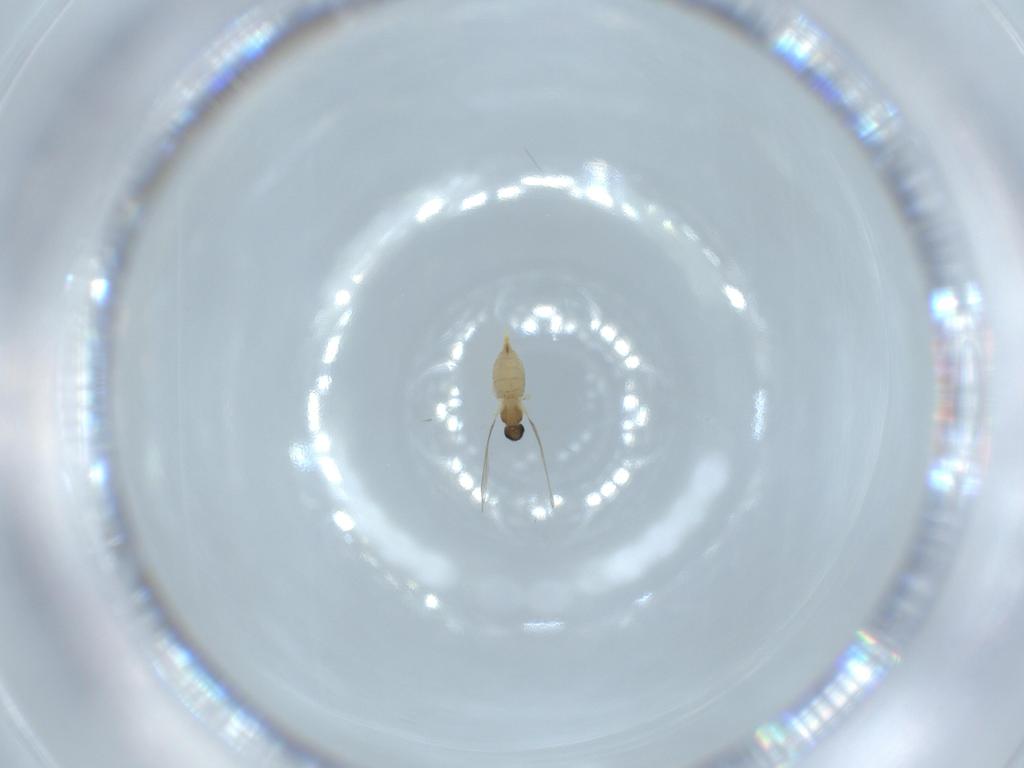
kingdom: Animalia
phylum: Arthropoda
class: Insecta
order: Diptera
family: Cecidomyiidae
